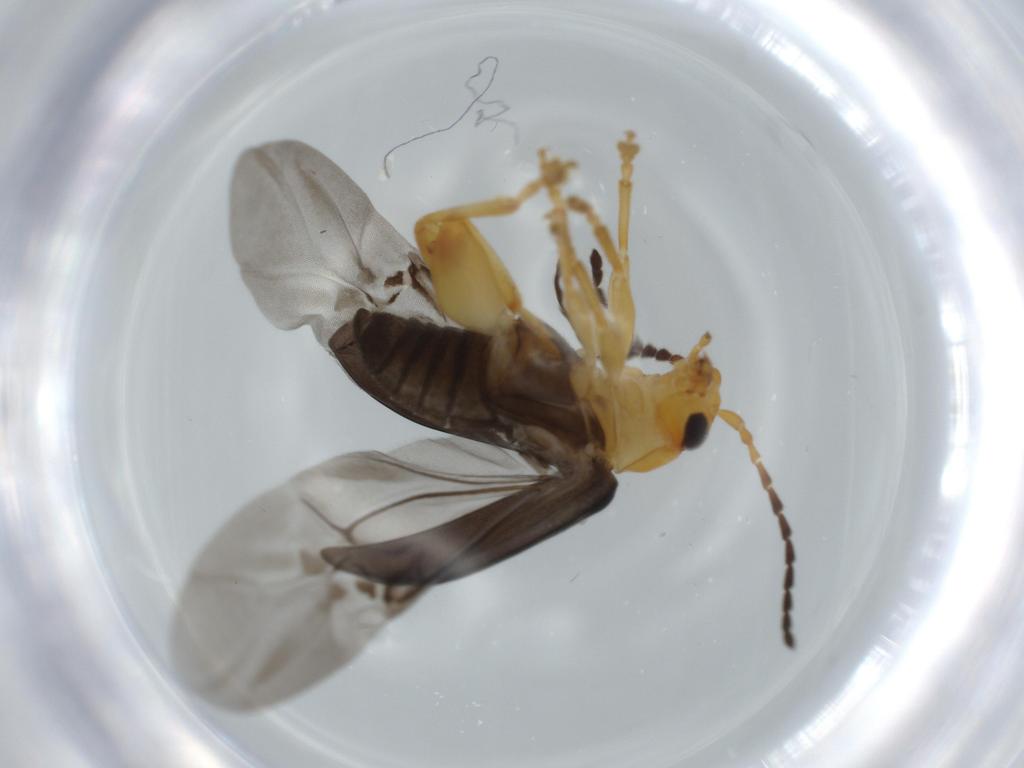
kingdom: Animalia
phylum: Arthropoda
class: Insecta
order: Coleoptera
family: Chrysomelidae
